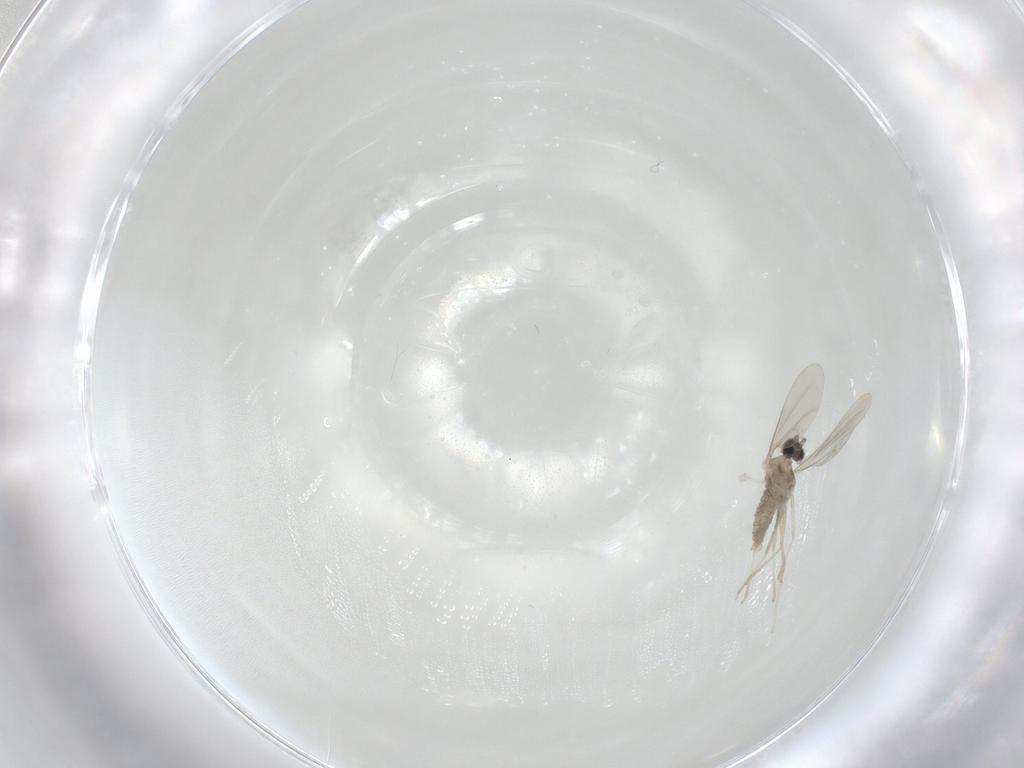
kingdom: Animalia
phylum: Arthropoda
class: Insecta
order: Diptera
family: Cecidomyiidae
